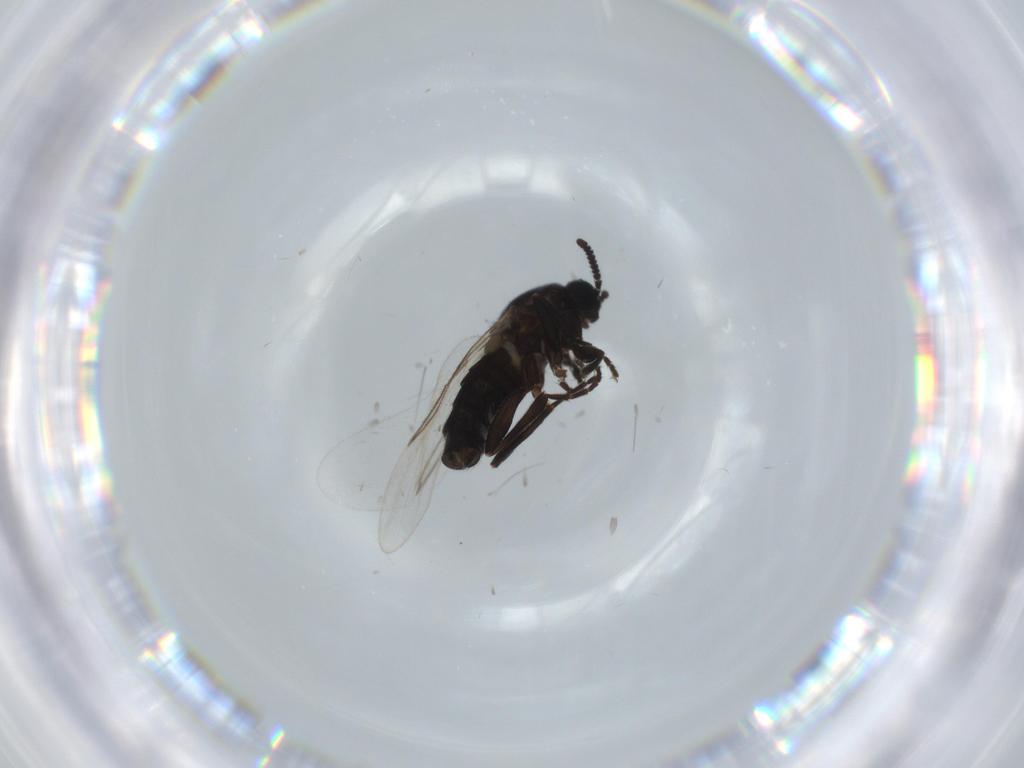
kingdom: Animalia
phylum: Arthropoda
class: Insecta
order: Diptera
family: Scatopsidae
